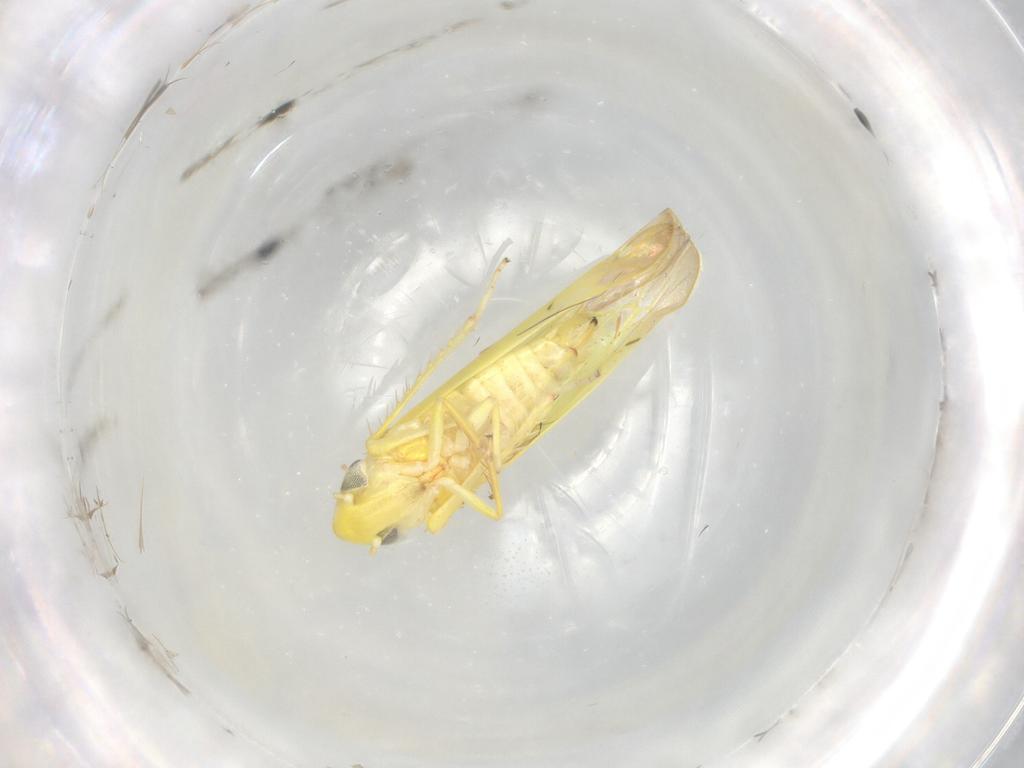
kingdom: Animalia
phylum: Arthropoda
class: Insecta
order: Hemiptera
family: Cicadellidae
